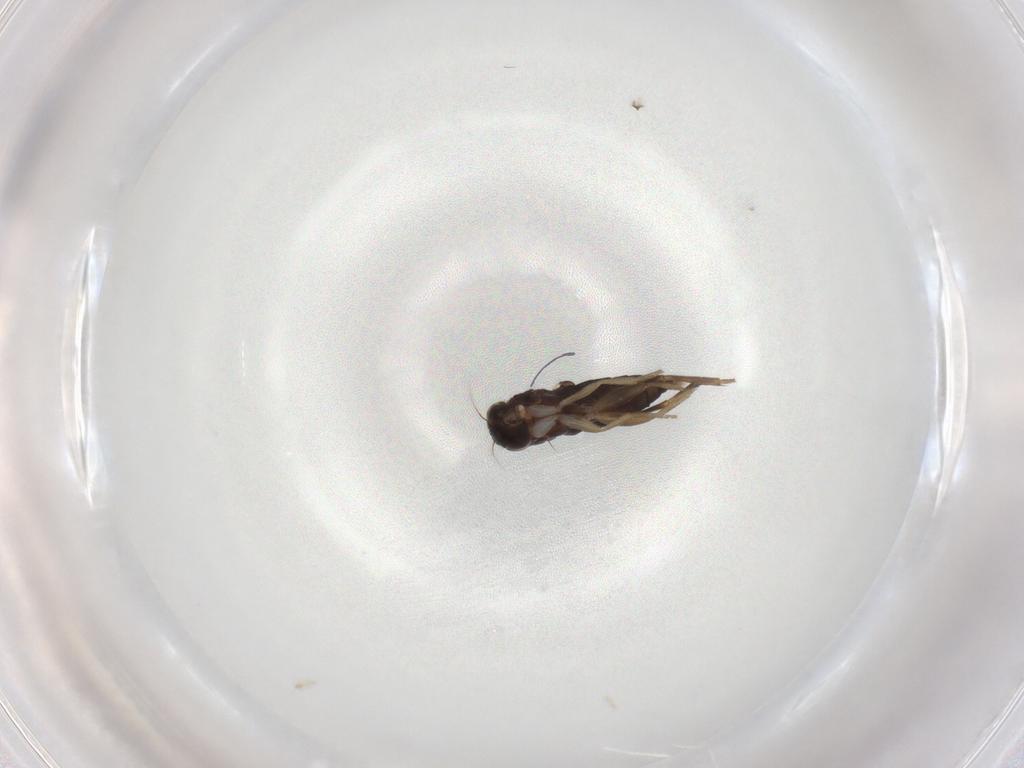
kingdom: Animalia
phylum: Arthropoda
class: Insecta
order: Diptera
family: Phoridae
